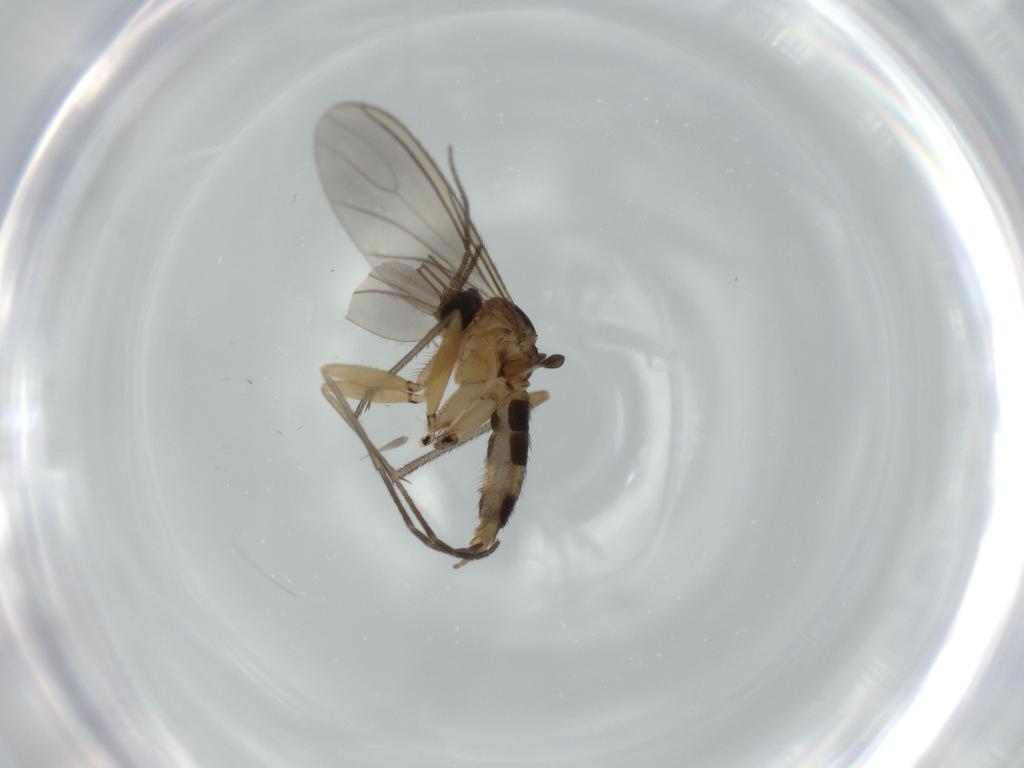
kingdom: Animalia
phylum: Arthropoda
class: Insecta
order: Diptera
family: Sciaridae
